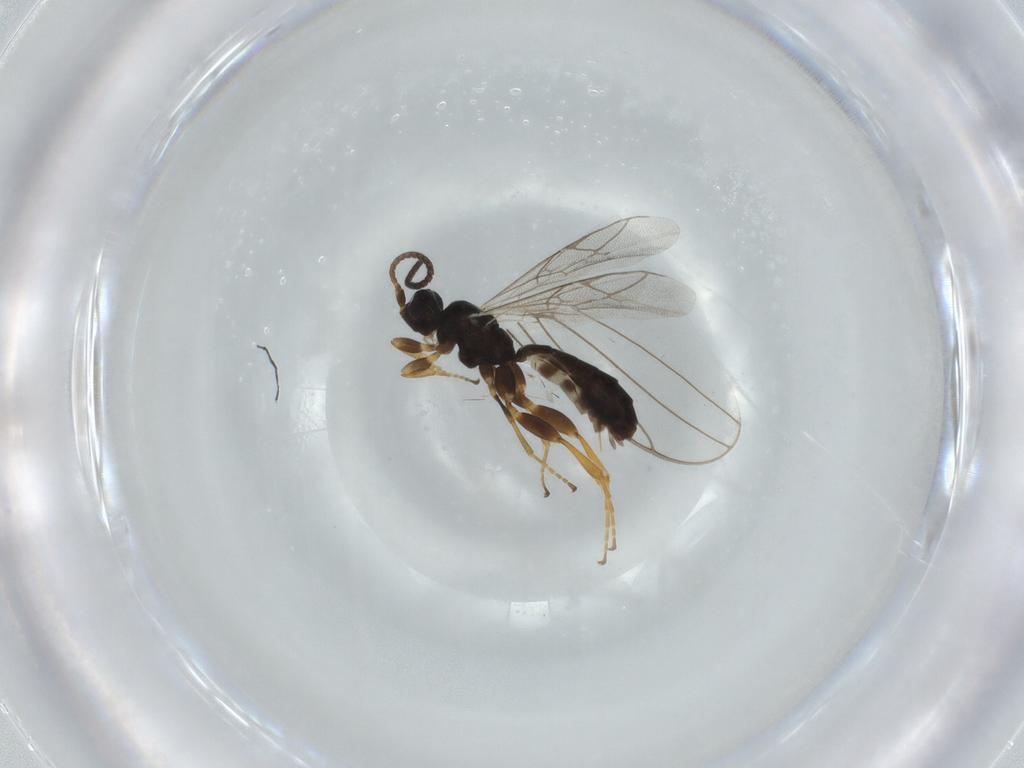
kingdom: Animalia
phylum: Arthropoda
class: Insecta
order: Hymenoptera
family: Ichneumonidae
